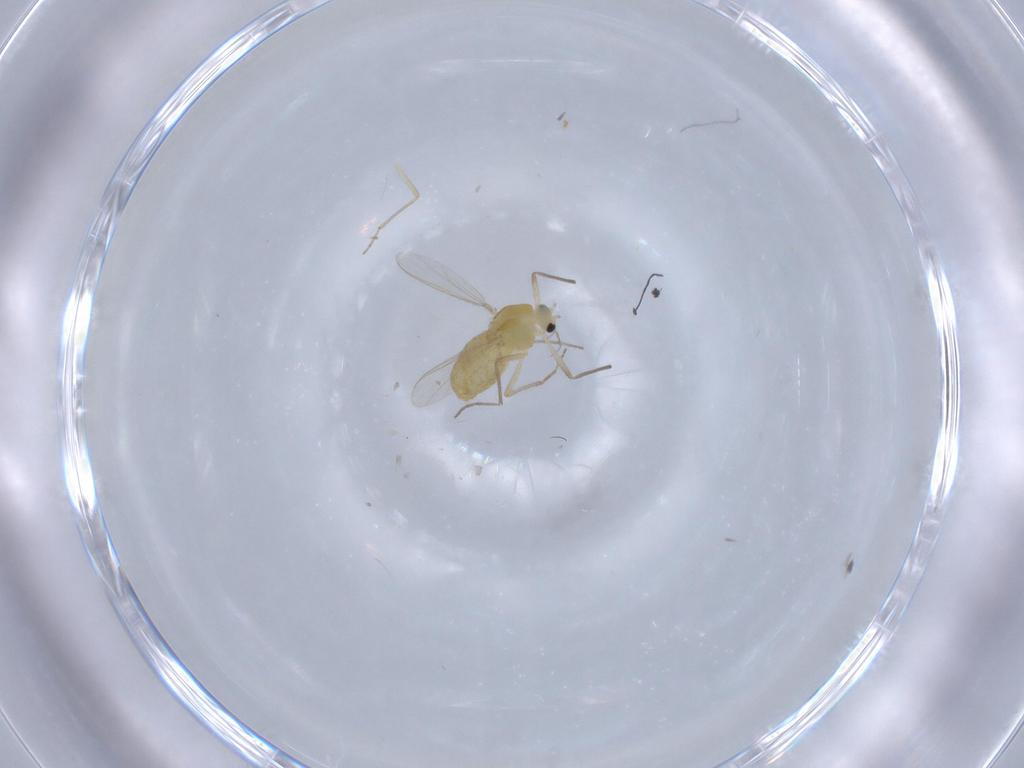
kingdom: Animalia
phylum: Arthropoda
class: Insecta
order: Diptera
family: Chironomidae
